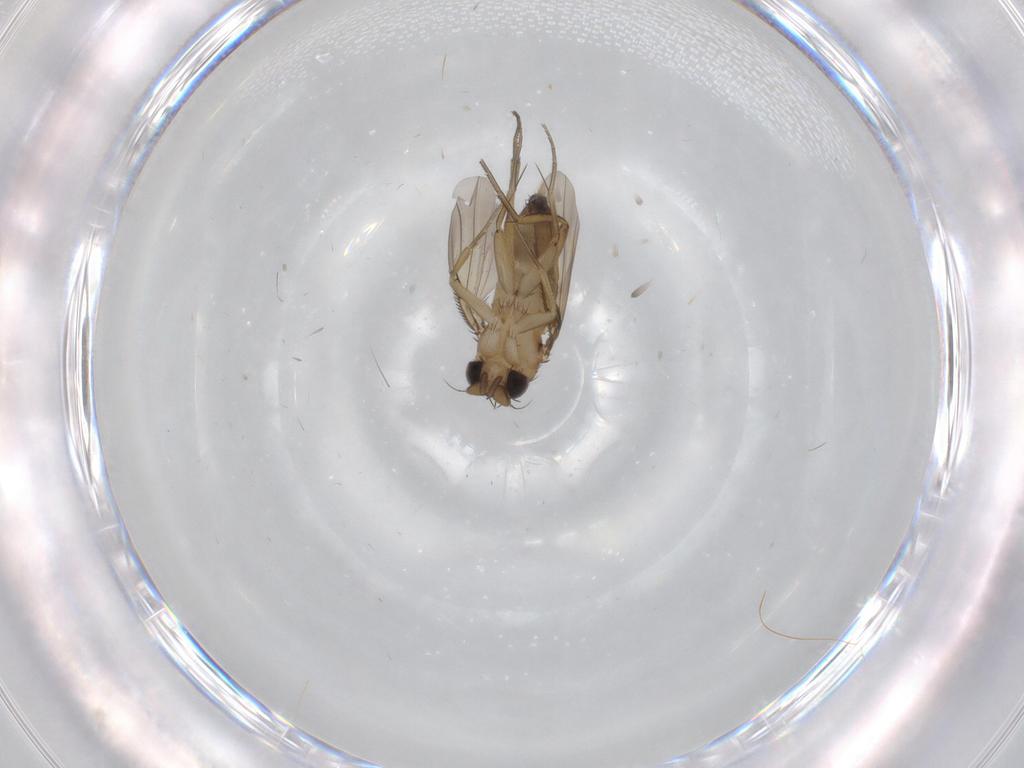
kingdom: Animalia
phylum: Arthropoda
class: Insecta
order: Diptera
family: Phoridae
